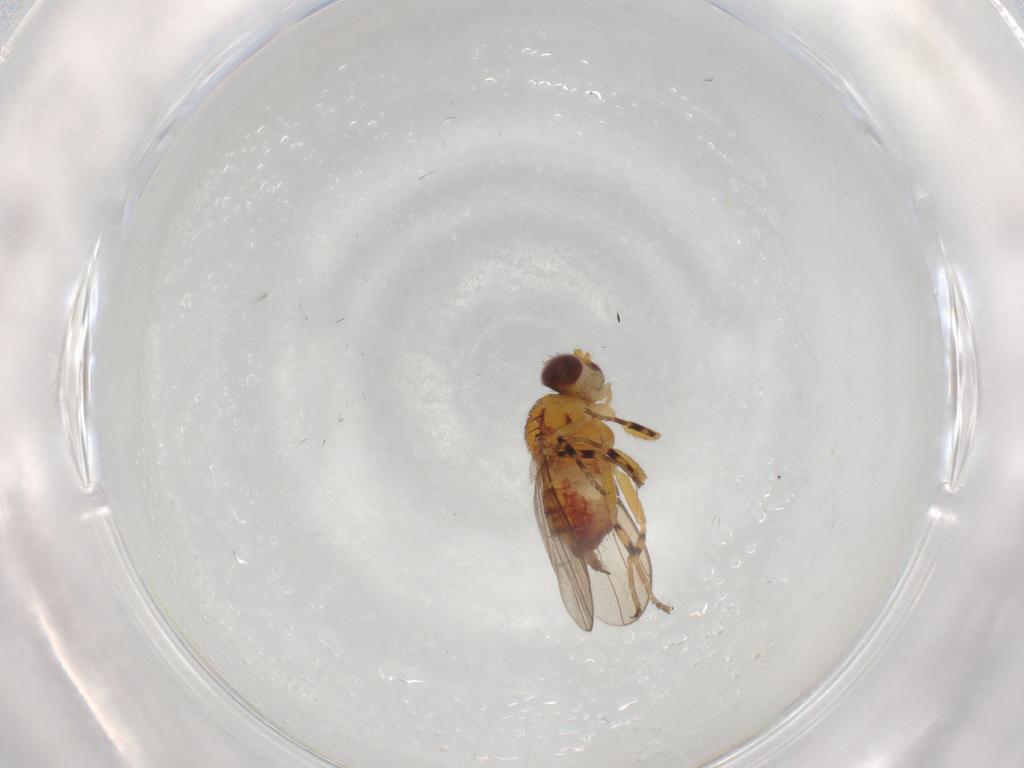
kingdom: Animalia
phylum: Arthropoda
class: Insecta
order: Diptera
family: Chloropidae
